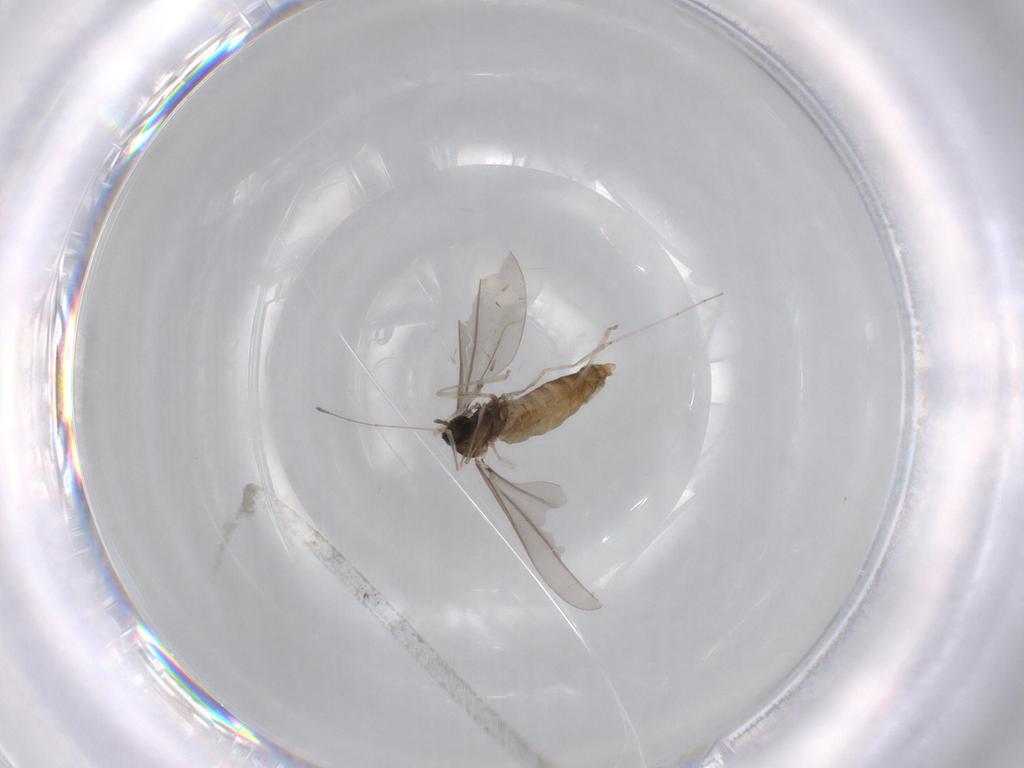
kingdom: Animalia
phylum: Arthropoda
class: Insecta
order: Diptera
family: Cecidomyiidae
